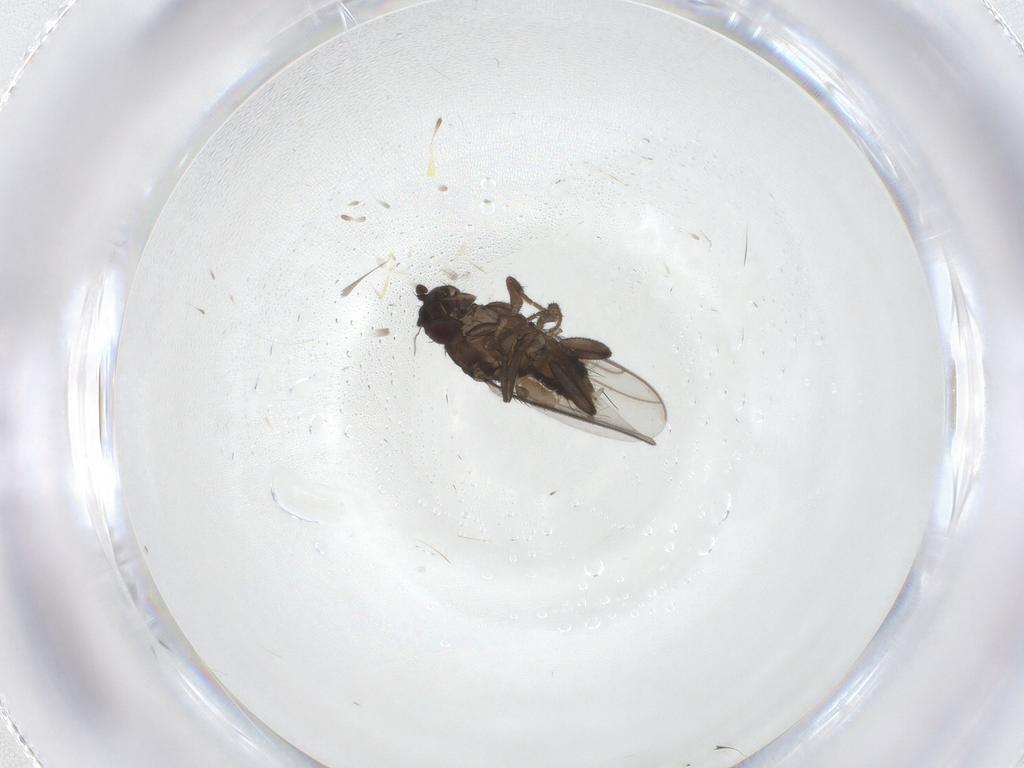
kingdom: Animalia
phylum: Arthropoda
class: Insecta
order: Diptera
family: Sphaeroceridae
